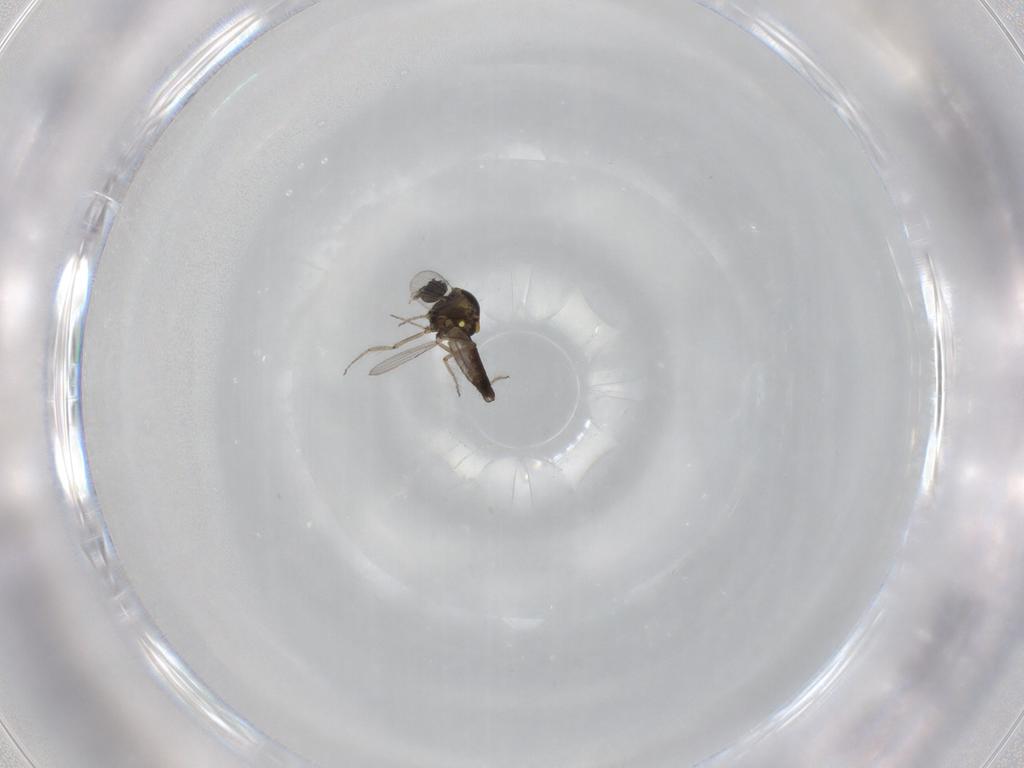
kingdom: Animalia
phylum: Arthropoda
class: Insecta
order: Diptera
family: Ceratopogonidae
